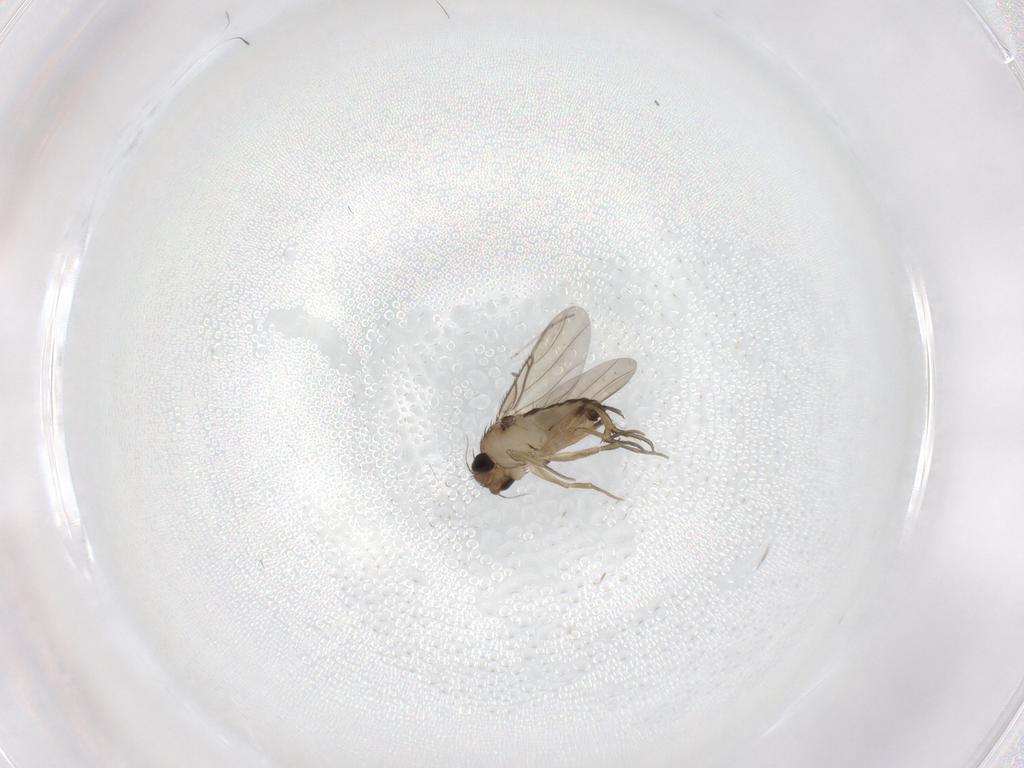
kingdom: Animalia
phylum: Arthropoda
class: Insecta
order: Diptera
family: Phoridae
